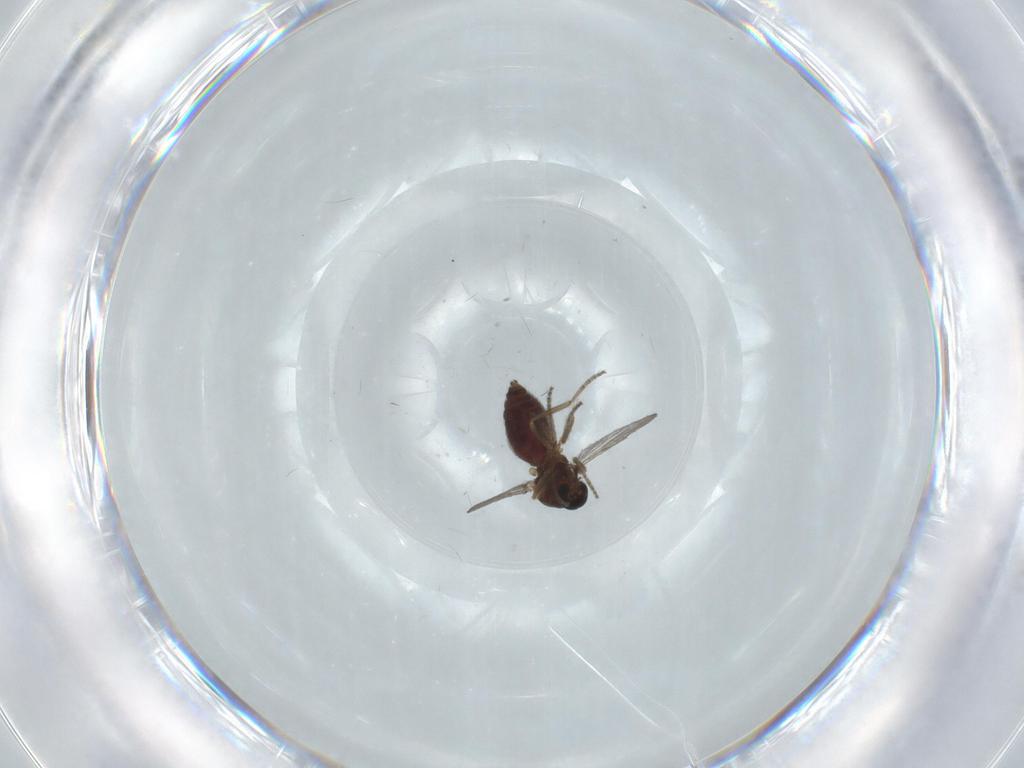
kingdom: Animalia
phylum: Arthropoda
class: Insecta
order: Diptera
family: Ceratopogonidae
